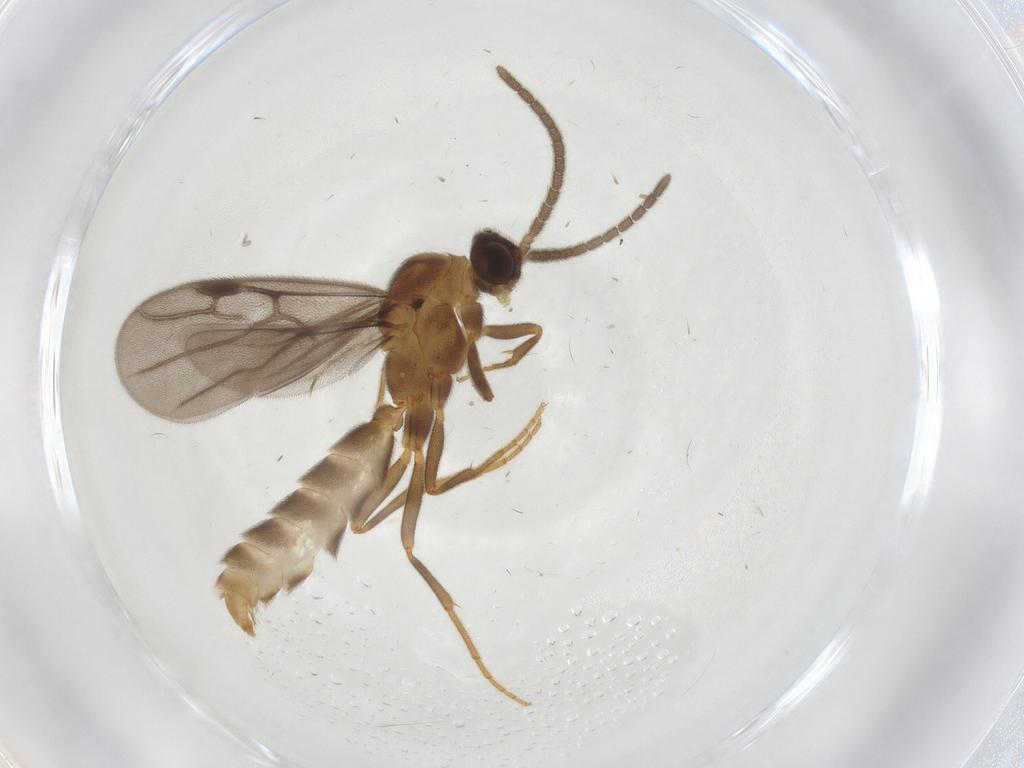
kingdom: Animalia
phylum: Arthropoda
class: Insecta
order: Hymenoptera
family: Formicidae
